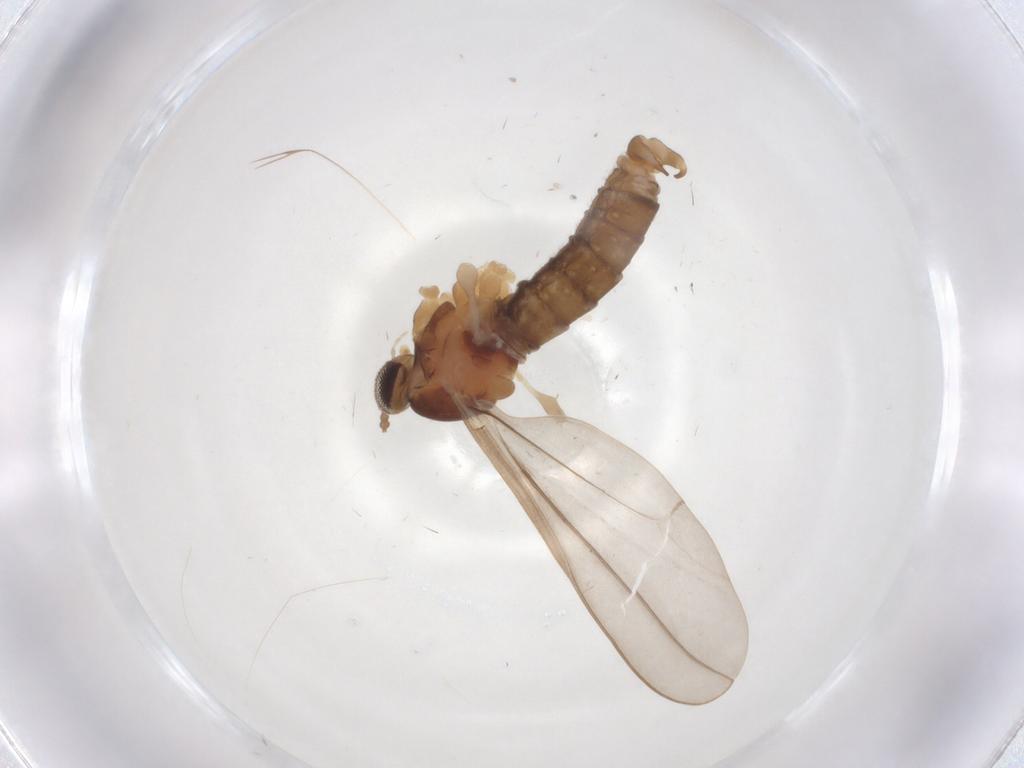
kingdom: Animalia
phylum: Arthropoda
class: Insecta
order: Diptera
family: Cecidomyiidae
